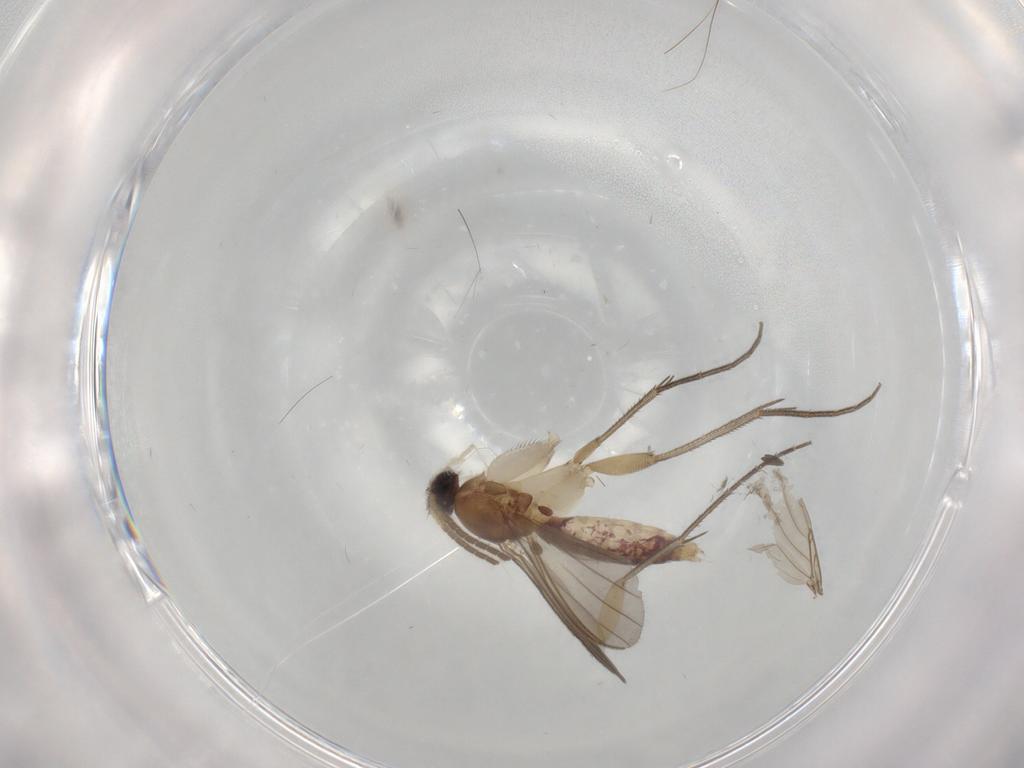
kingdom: Animalia
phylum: Arthropoda
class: Insecta
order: Diptera
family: Mycetophilidae
